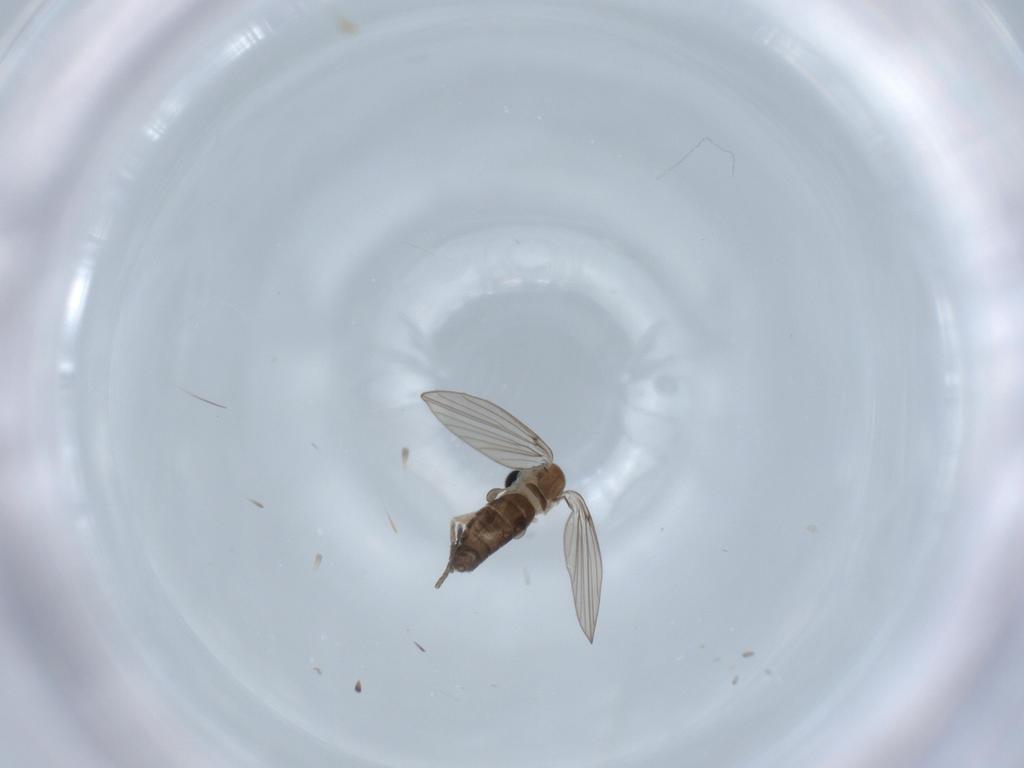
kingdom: Animalia
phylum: Arthropoda
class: Insecta
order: Diptera
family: Psychodidae
